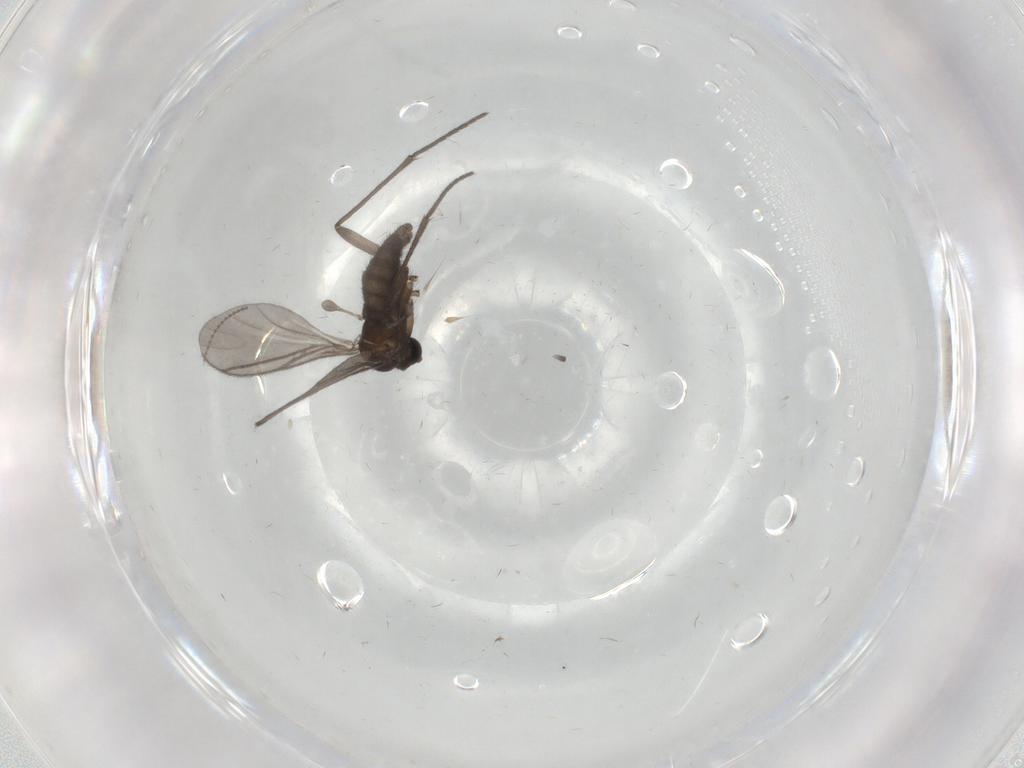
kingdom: Animalia
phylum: Arthropoda
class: Insecta
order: Diptera
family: Sciaridae
